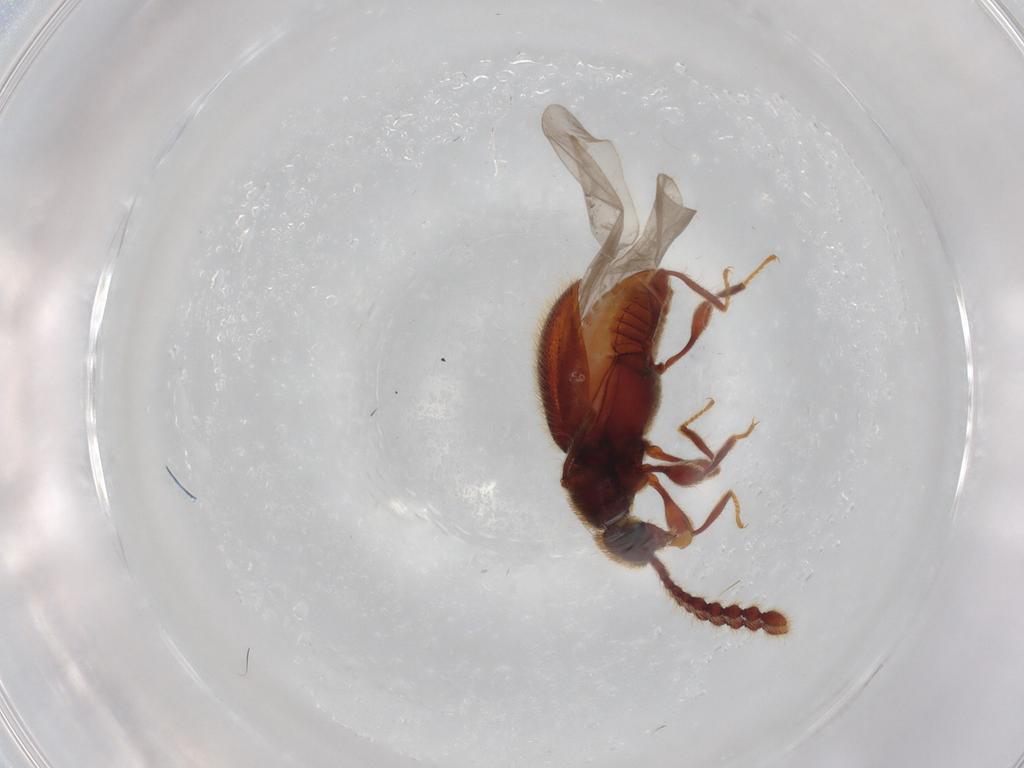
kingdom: Animalia
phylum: Arthropoda
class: Insecta
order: Coleoptera
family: Staphylinidae
